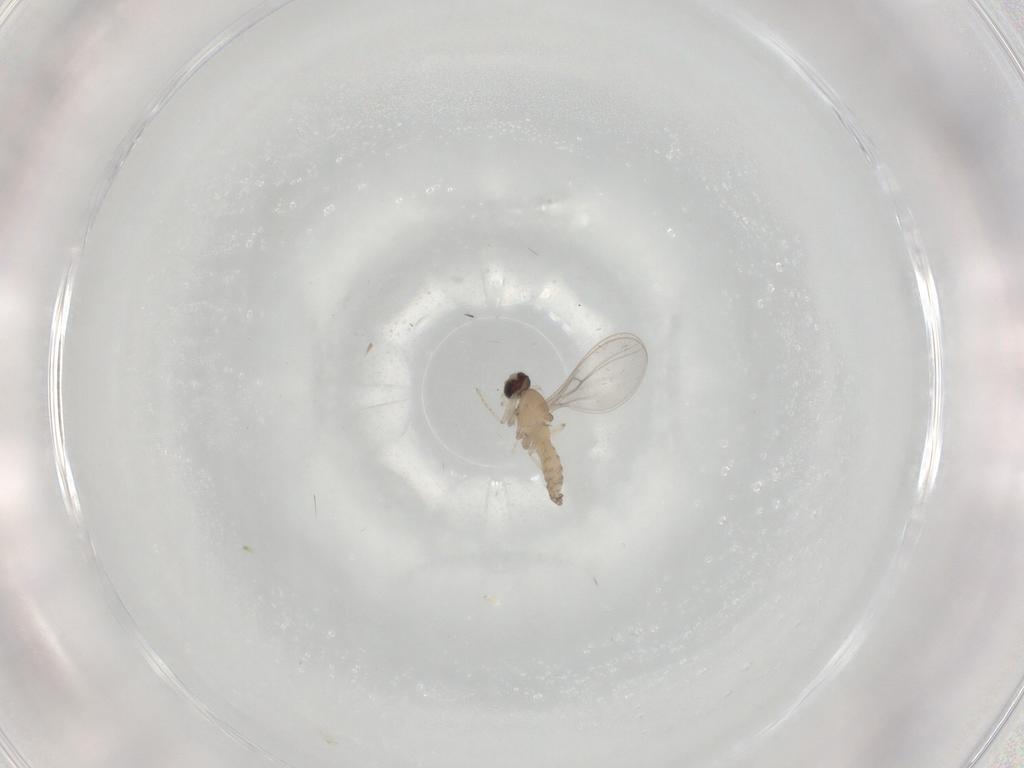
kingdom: Animalia
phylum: Arthropoda
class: Insecta
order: Diptera
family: Cecidomyiidae
